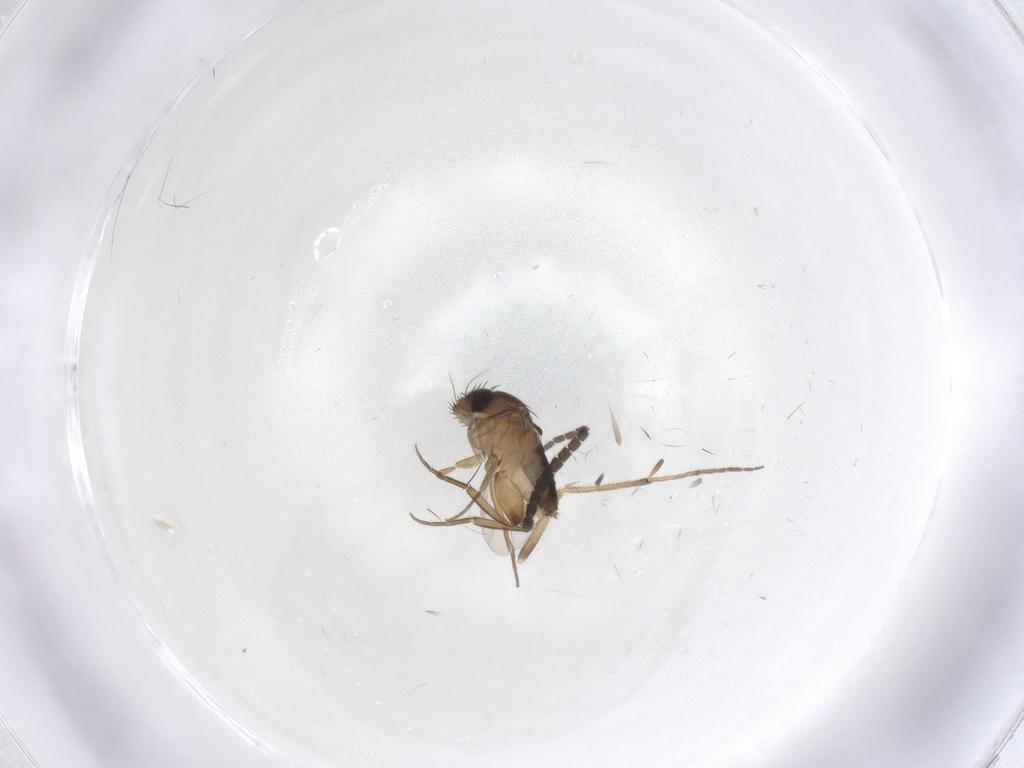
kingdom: Animalia
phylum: Arthropoda
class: Insecta
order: Diptera
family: Phoridae
